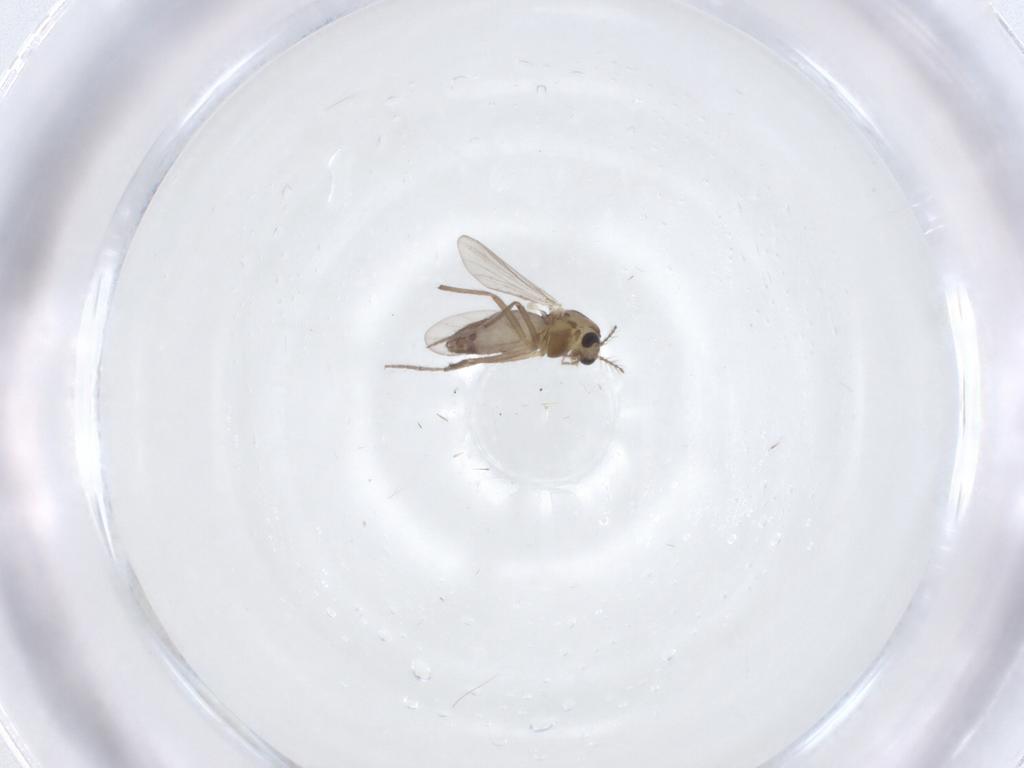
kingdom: Animalia
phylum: Arthropoda
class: Insecta
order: Diptera
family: Chironomidae
